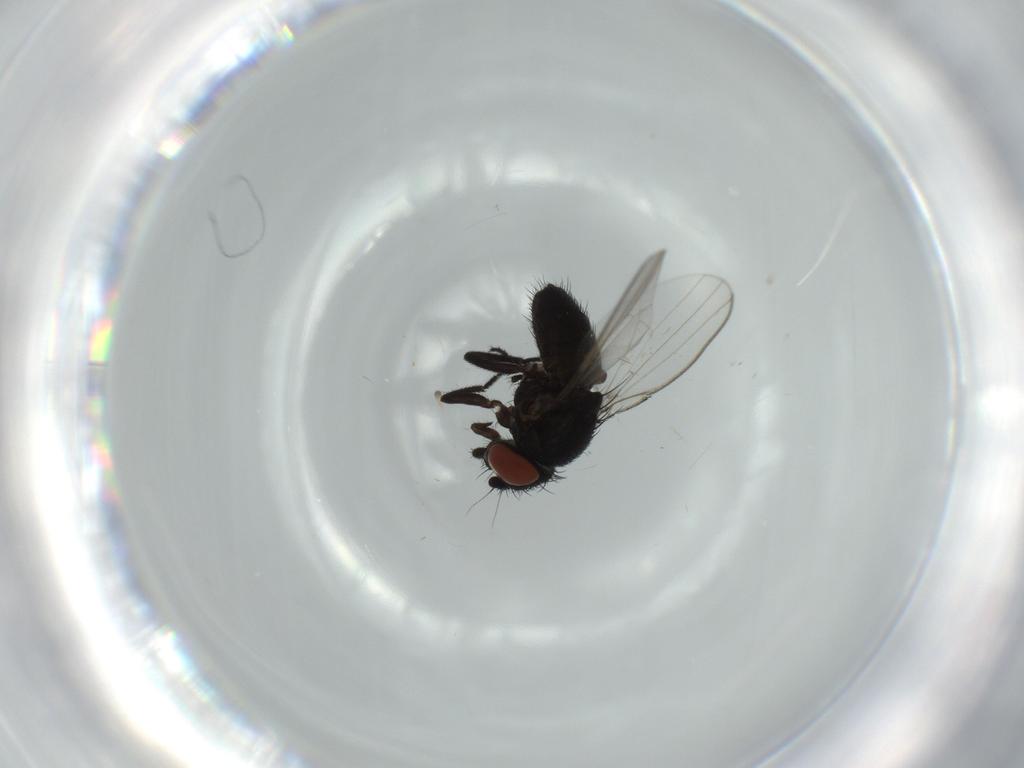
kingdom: Animalia
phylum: Arthropoda
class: Insecta
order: Diptera
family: Milichiidae
